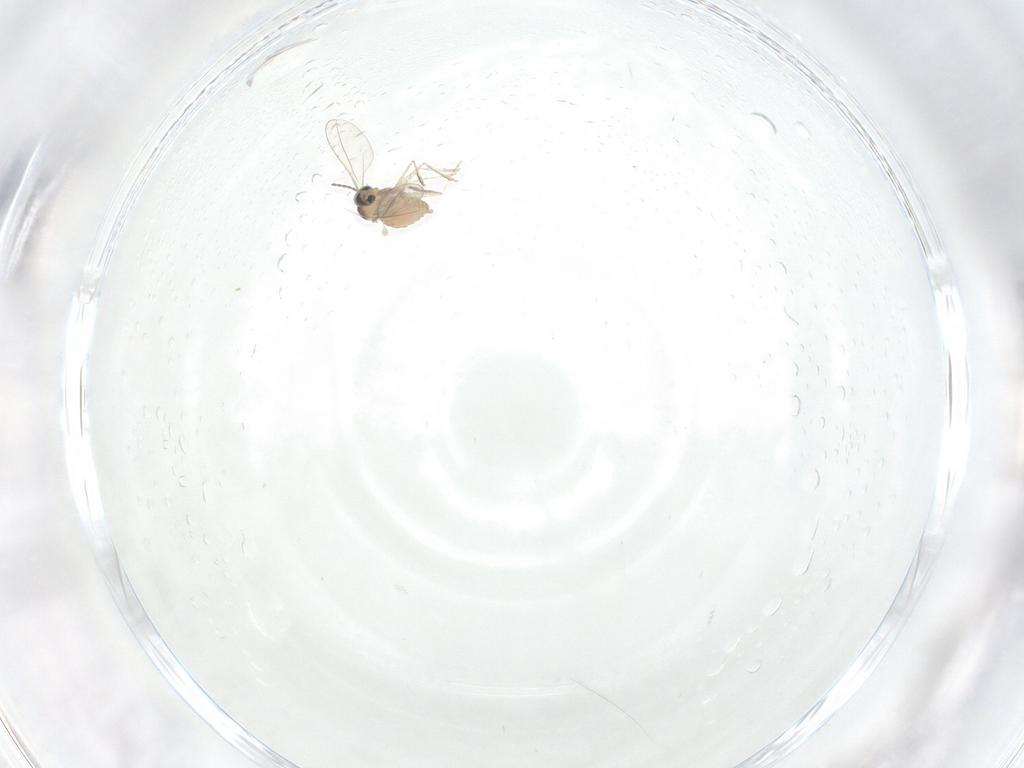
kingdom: Animalia
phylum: Arthropoda
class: Insecta
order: Diptera
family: Cecidomyiidae
